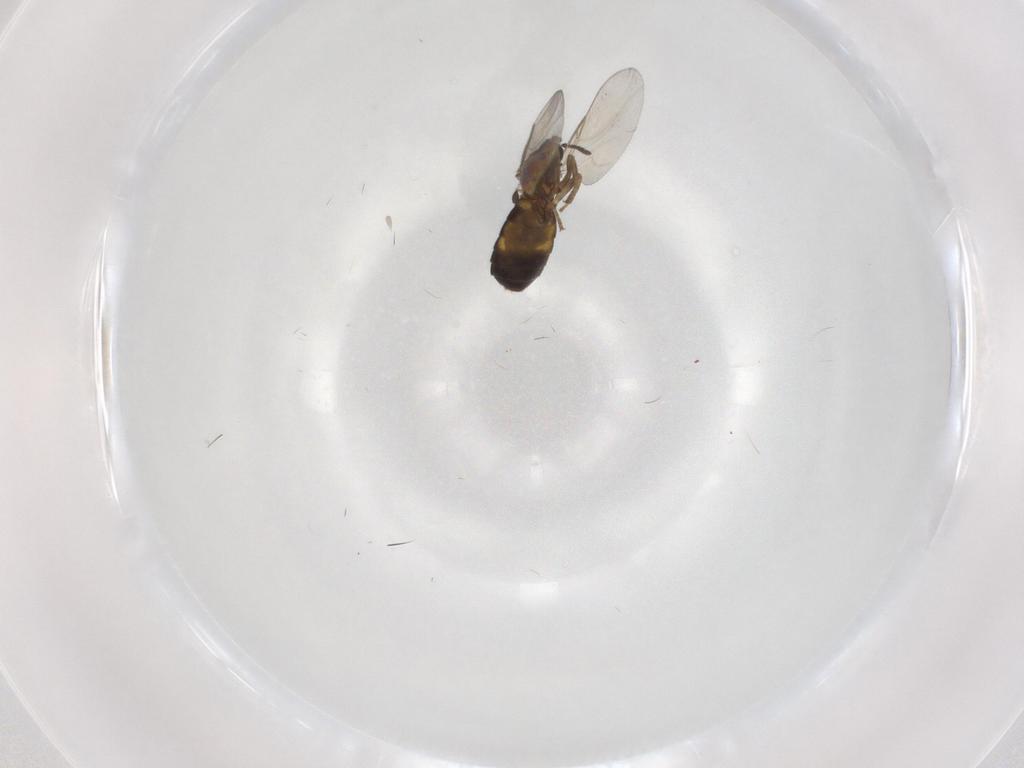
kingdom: Animalia
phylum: Arthropoda
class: Insecta
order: Diptera
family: Scatopsidae
